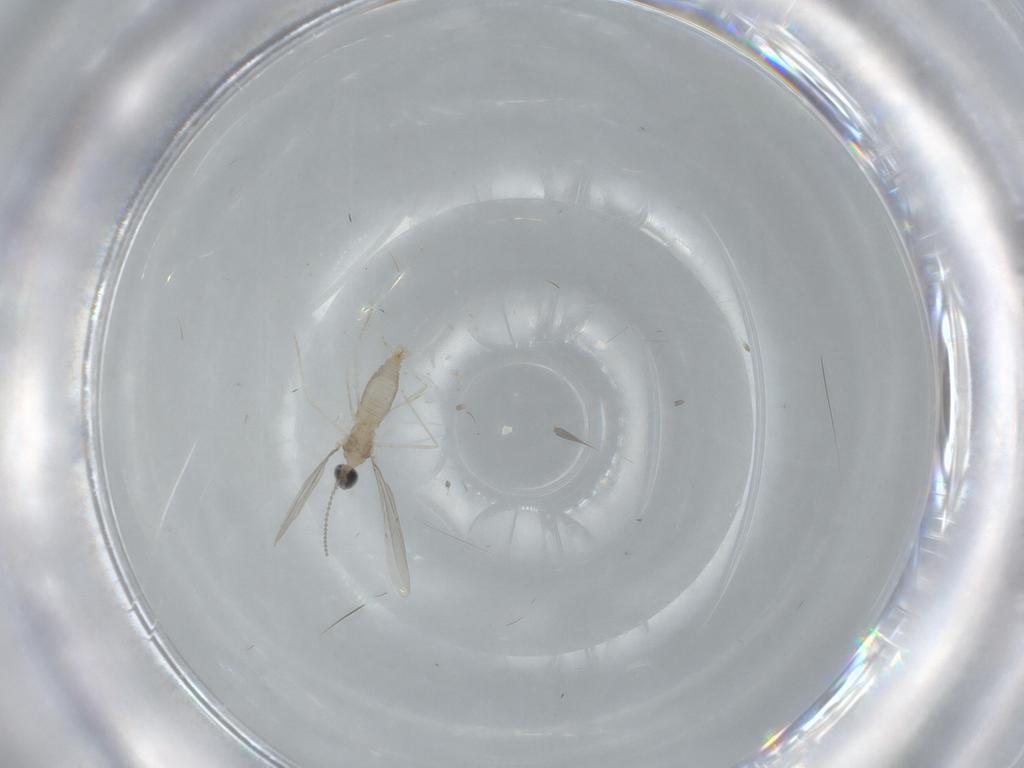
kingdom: Animalia
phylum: Arthropoda
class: Insecta
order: Diptera
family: Cecidomyiidae
